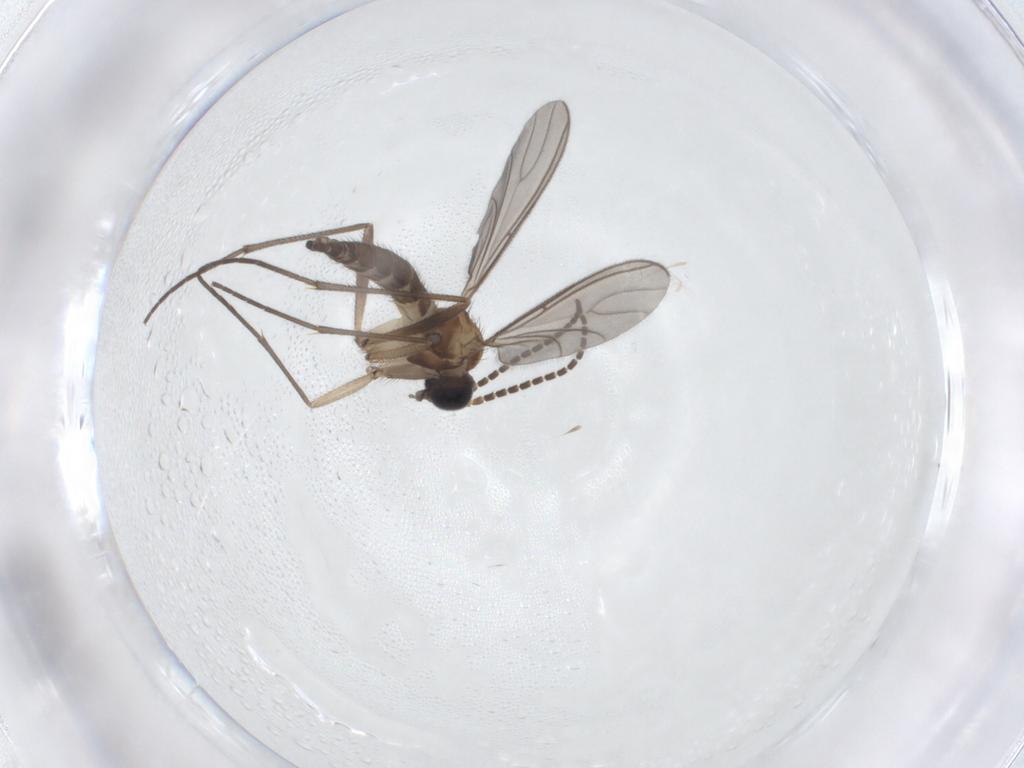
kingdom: Animalia
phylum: Arthropoda
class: Insecta
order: Diptera
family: Sciaridae
